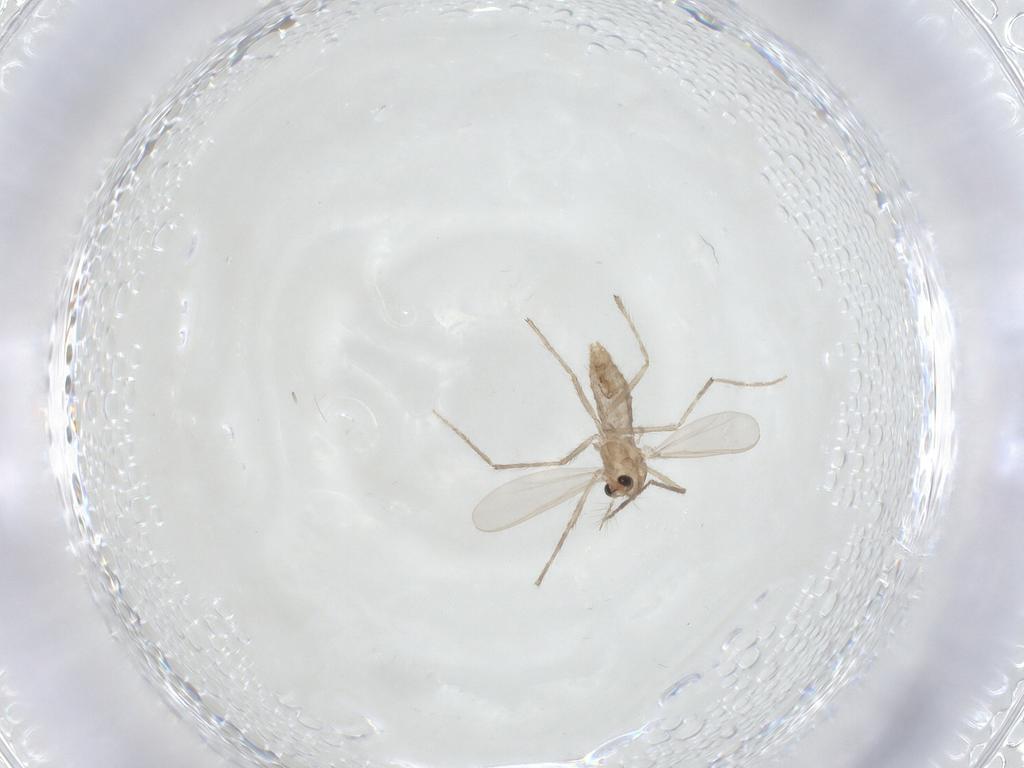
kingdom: Animalia
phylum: Arthropoda
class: Insecta
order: Diptera
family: Chironomidae
